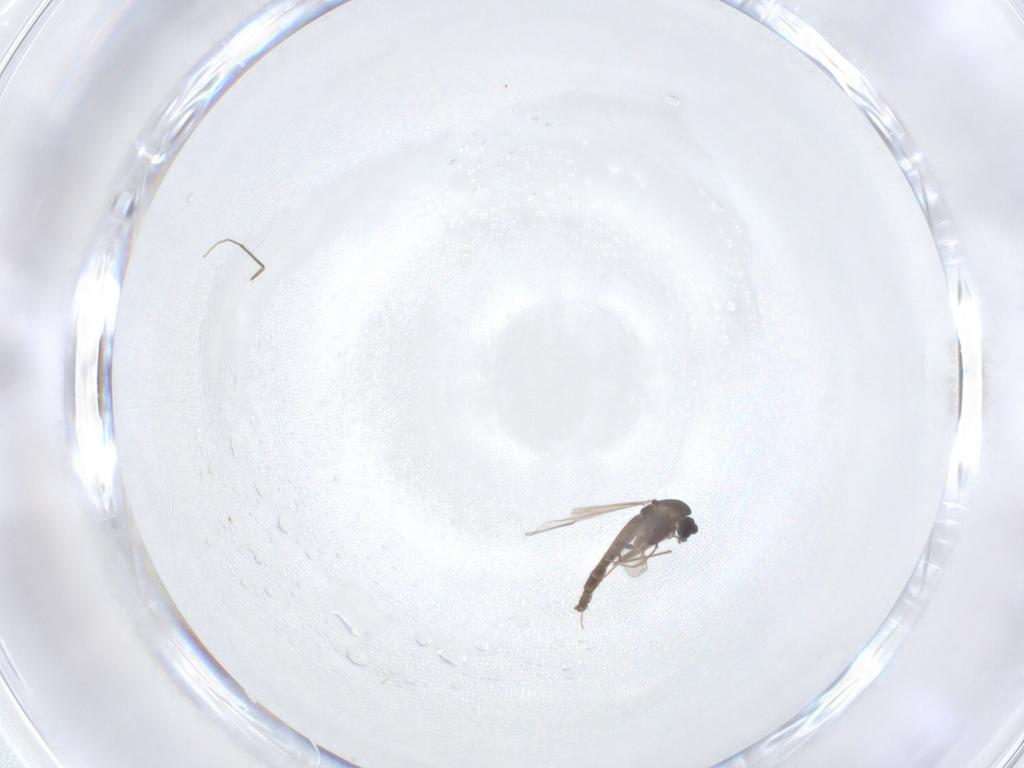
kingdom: Animalia
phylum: Arthropoda
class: Insecta
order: Diptera
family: Chironomidae
